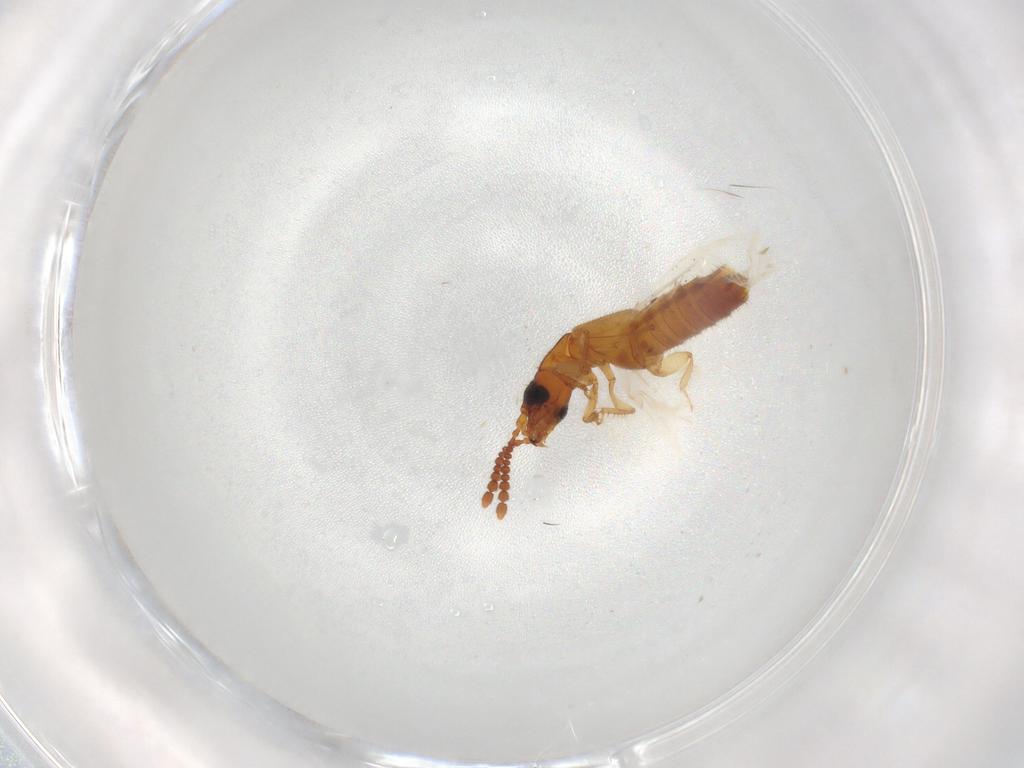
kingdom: Animalia
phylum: Arthropoda
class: Insecta
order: Coleoptera
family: Staphylinidae
